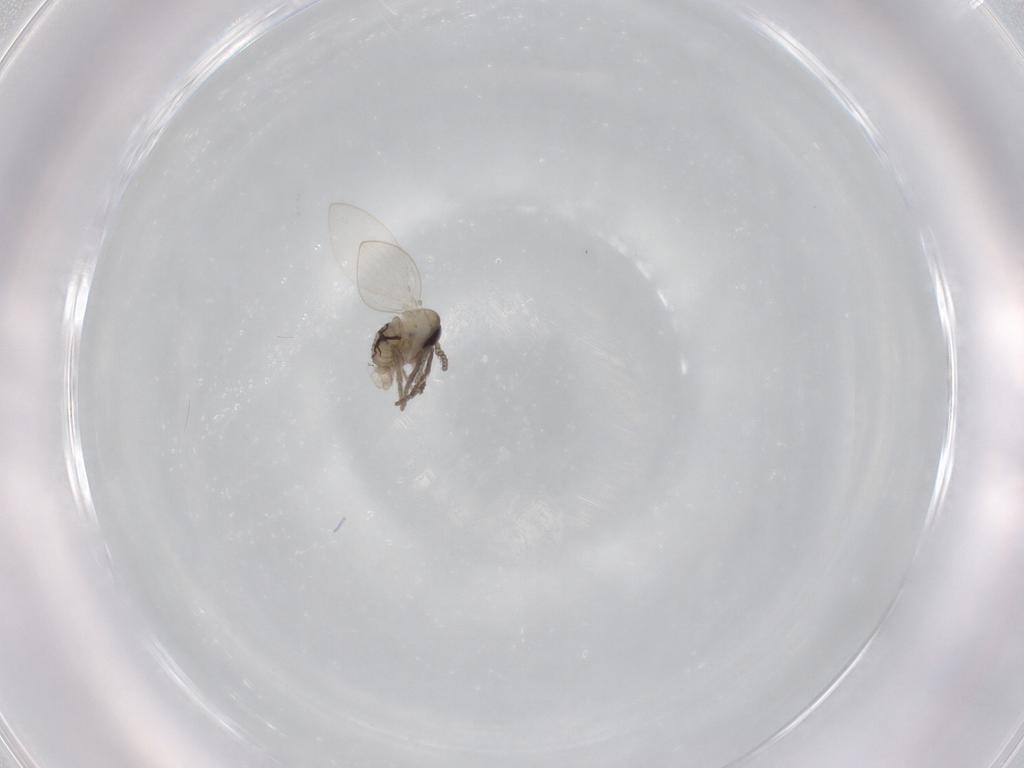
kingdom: Animalia
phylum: Arthropoda
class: Insecta
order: Diptera
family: Psychodidae
